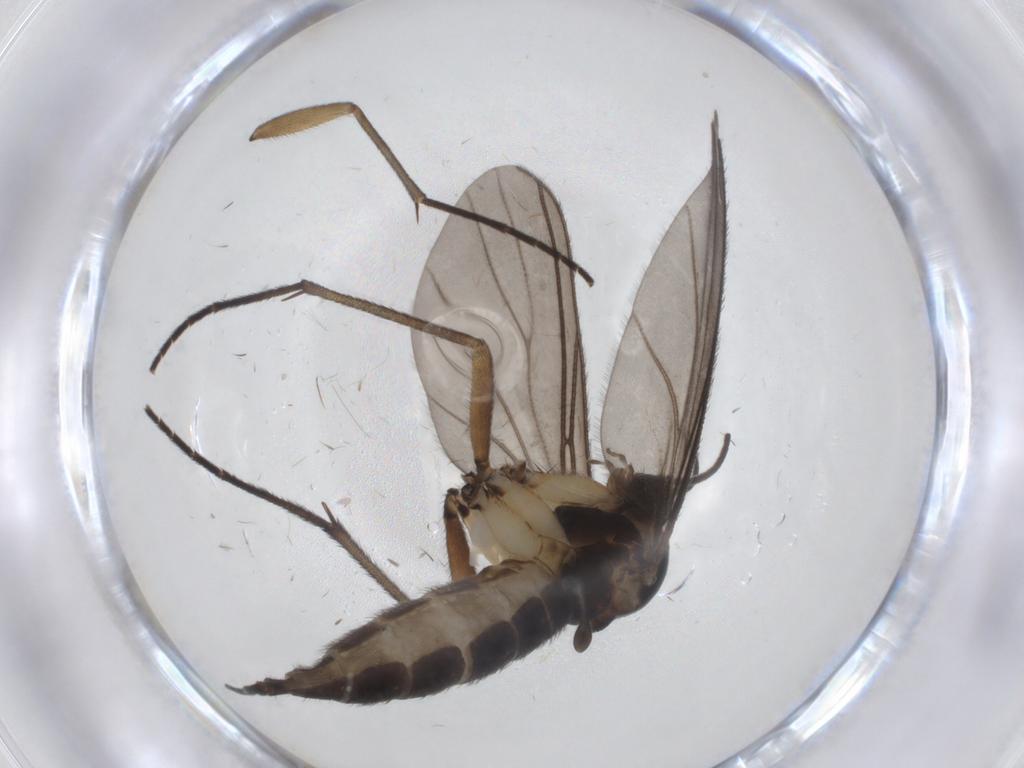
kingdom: Animalia
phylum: Arthropoda
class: Insecta
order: Diptera
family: Sciaridae
